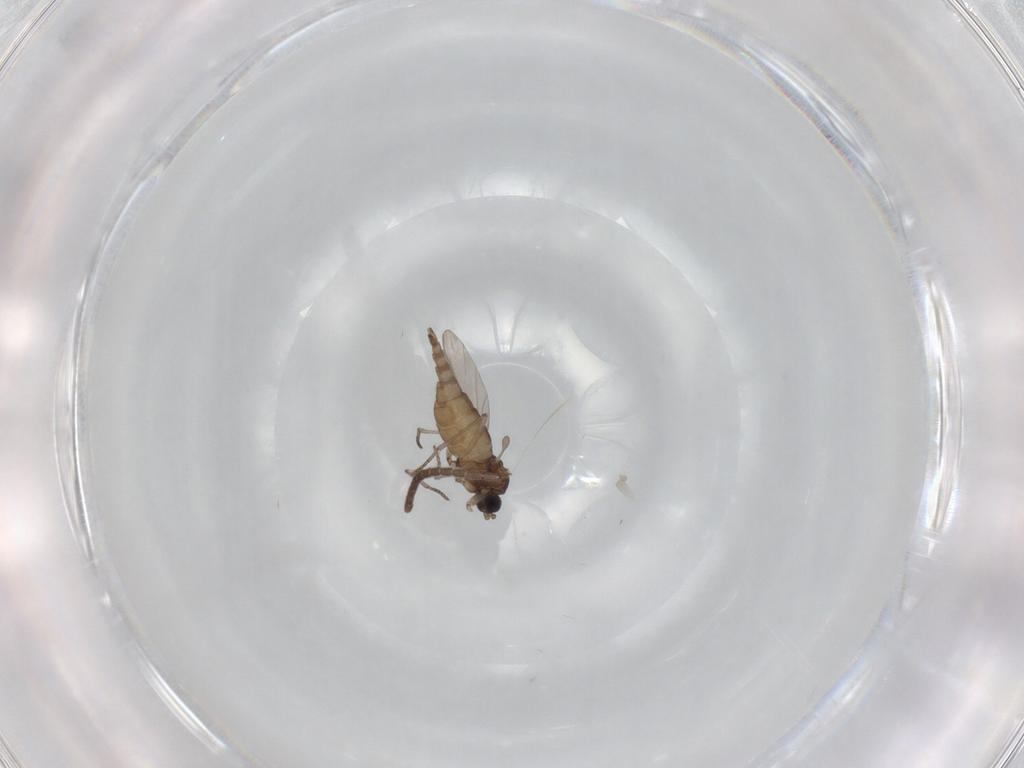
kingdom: Animalia
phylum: Arthropoda
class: Insecta
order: Diptera
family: Sciaridae
